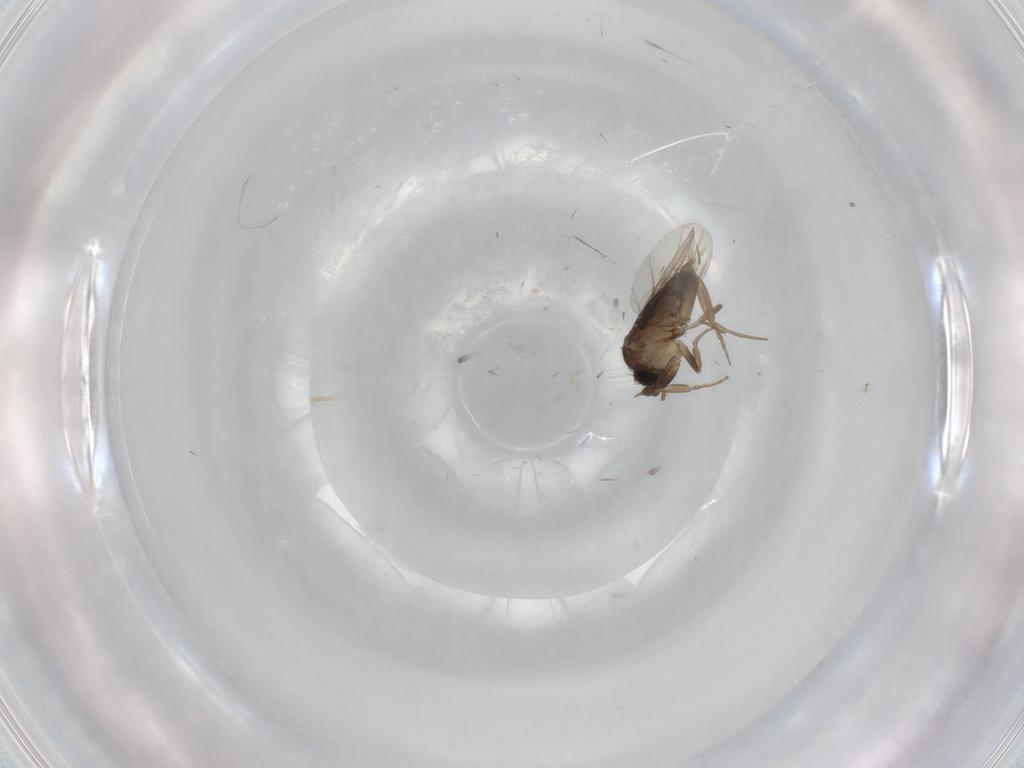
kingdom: Animalia
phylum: Arthropoda
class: Insecta
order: Diptera
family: Phoridae
